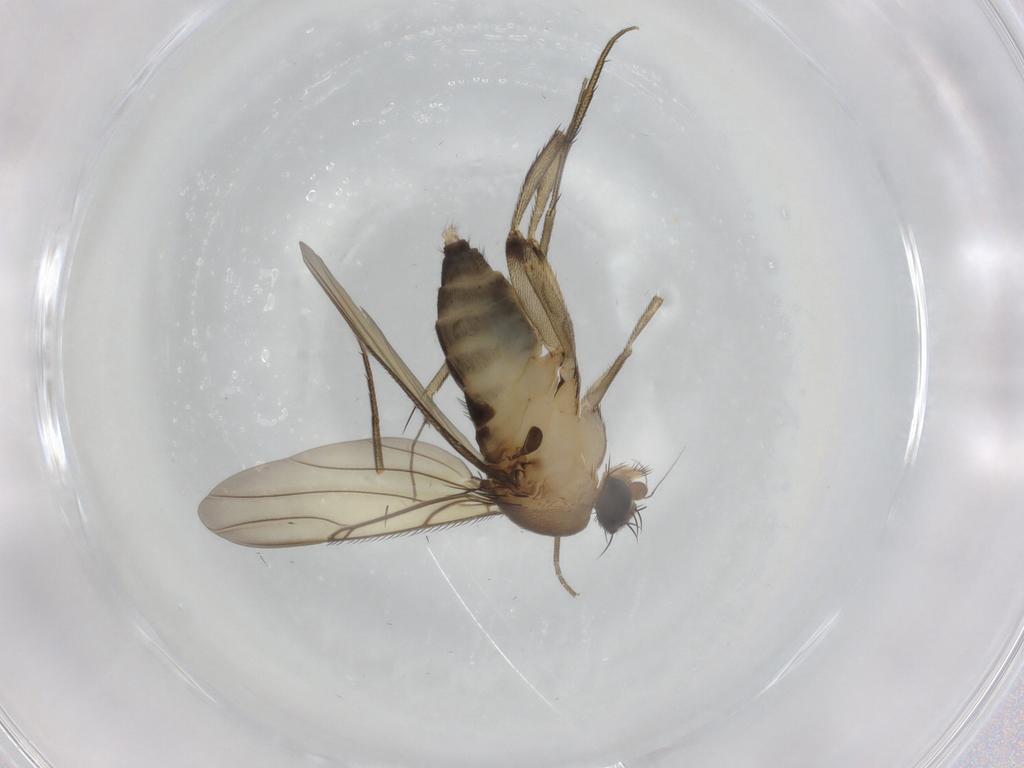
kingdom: Animalia
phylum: Arthropoda
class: Insecta
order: Diptera
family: Chironomidae
